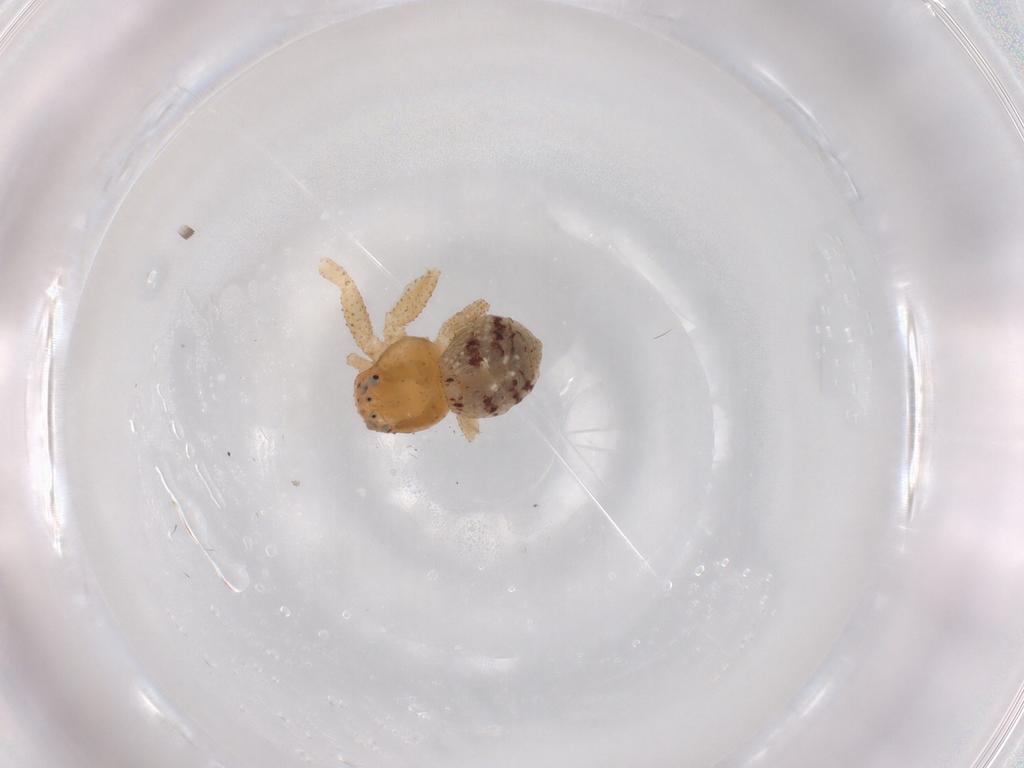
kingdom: Animalia
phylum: Arthropoda
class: Arachnida
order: Araneae
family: Thomisidae
